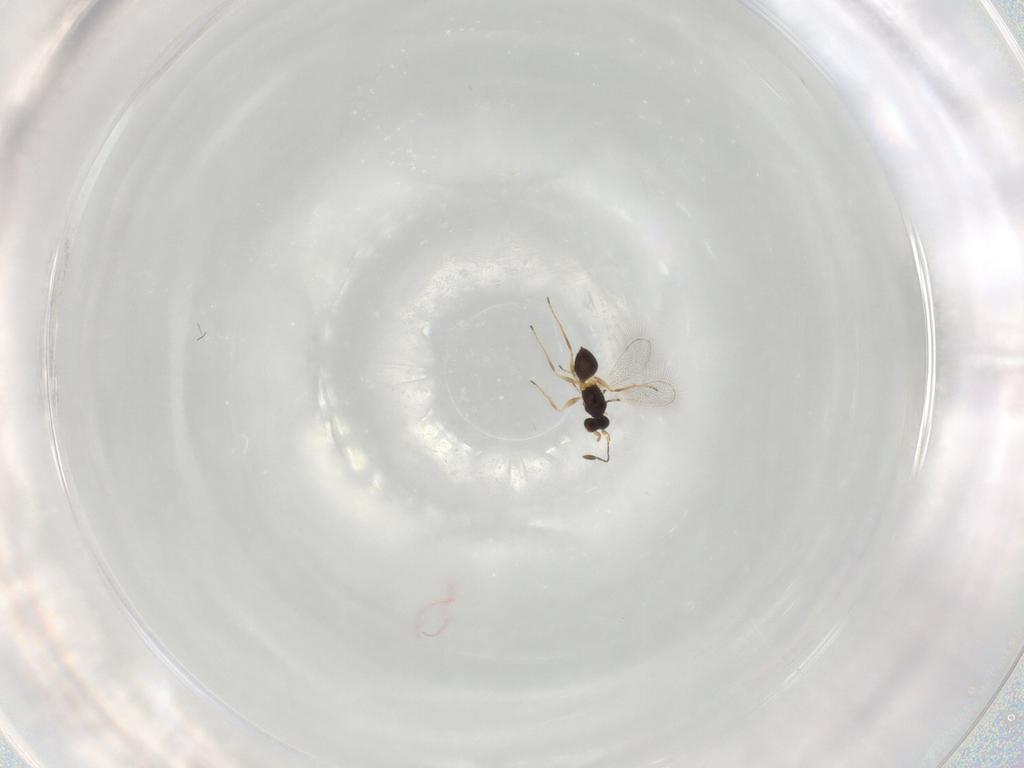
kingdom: Animalia
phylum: Arthropoda
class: Insecta
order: Hymenoptera
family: Mymaridae
